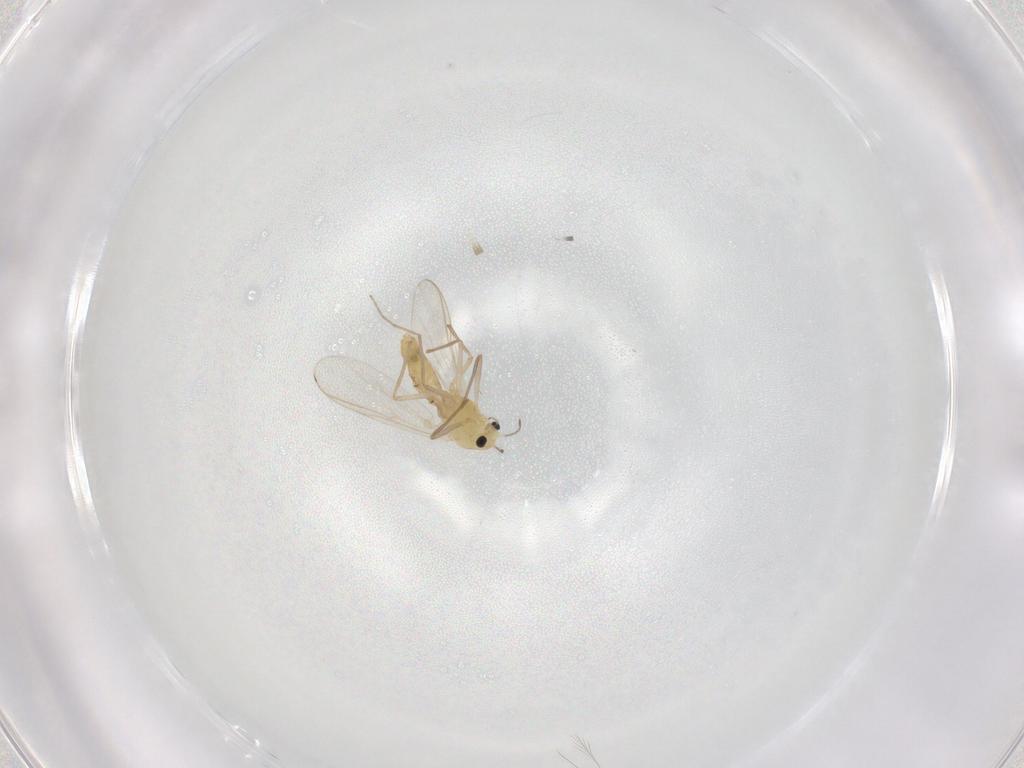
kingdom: Animalia
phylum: Arthropoda
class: Insecta
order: Diptera
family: Chironomidae
